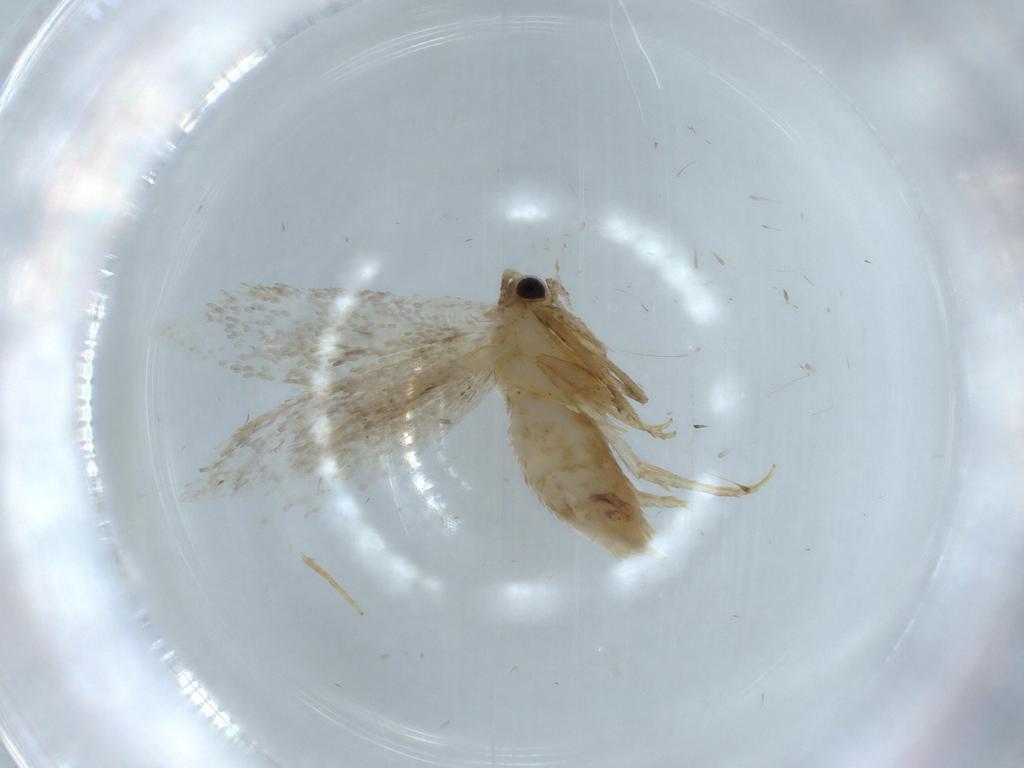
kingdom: Animalia
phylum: Arthropoda
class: Insecta
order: Lepidoptera
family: Tineidae
